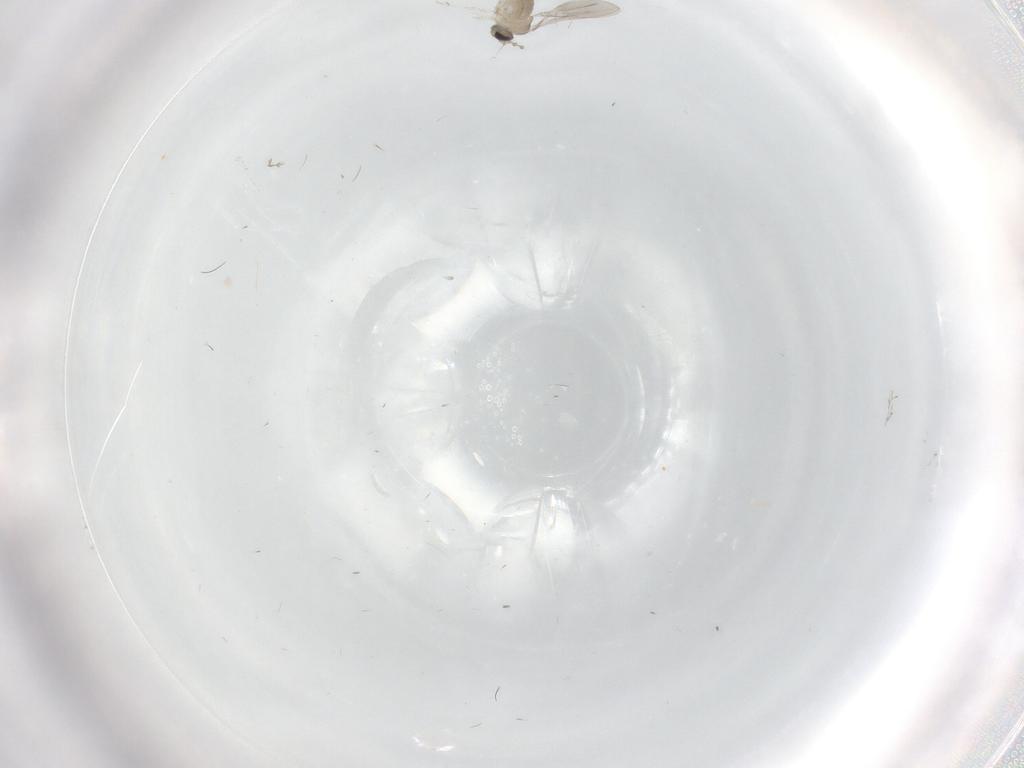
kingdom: Animalia
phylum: Arthropoda
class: Insecta
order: Diptera
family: Cecidomyiidae
